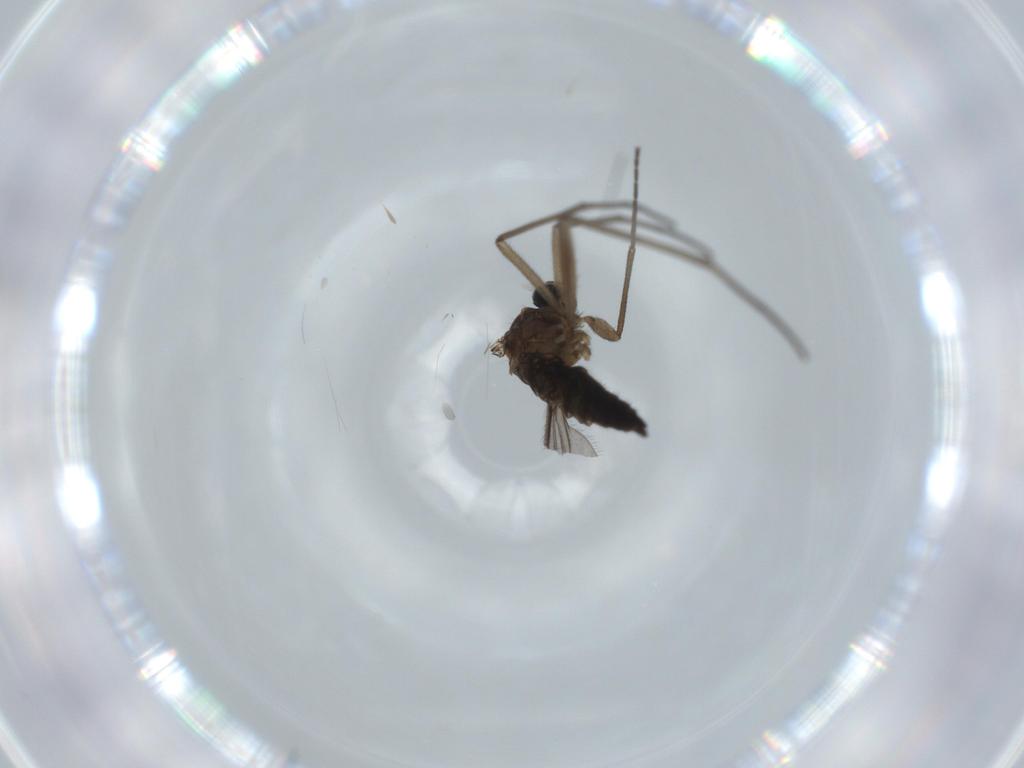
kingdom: Animalia
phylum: Arthropoda
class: Insecta
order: Diptera
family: Sciaridae
